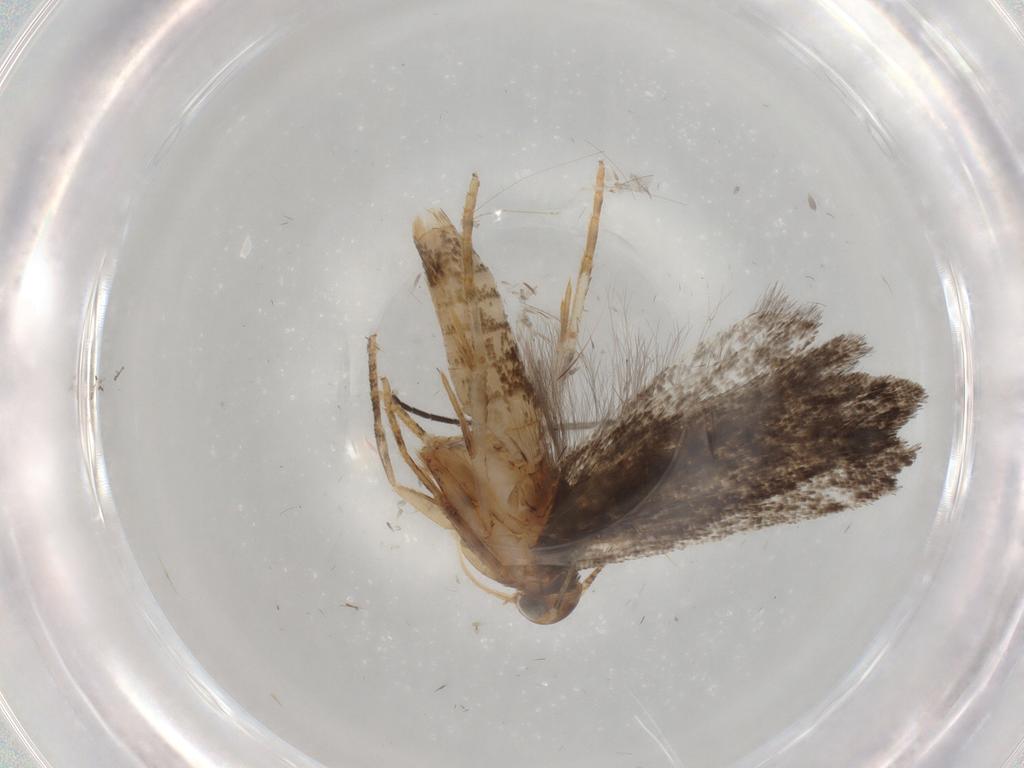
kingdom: Animalia
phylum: Arthropoda
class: Insecta
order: Lepidoptera
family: Gelechiidae
